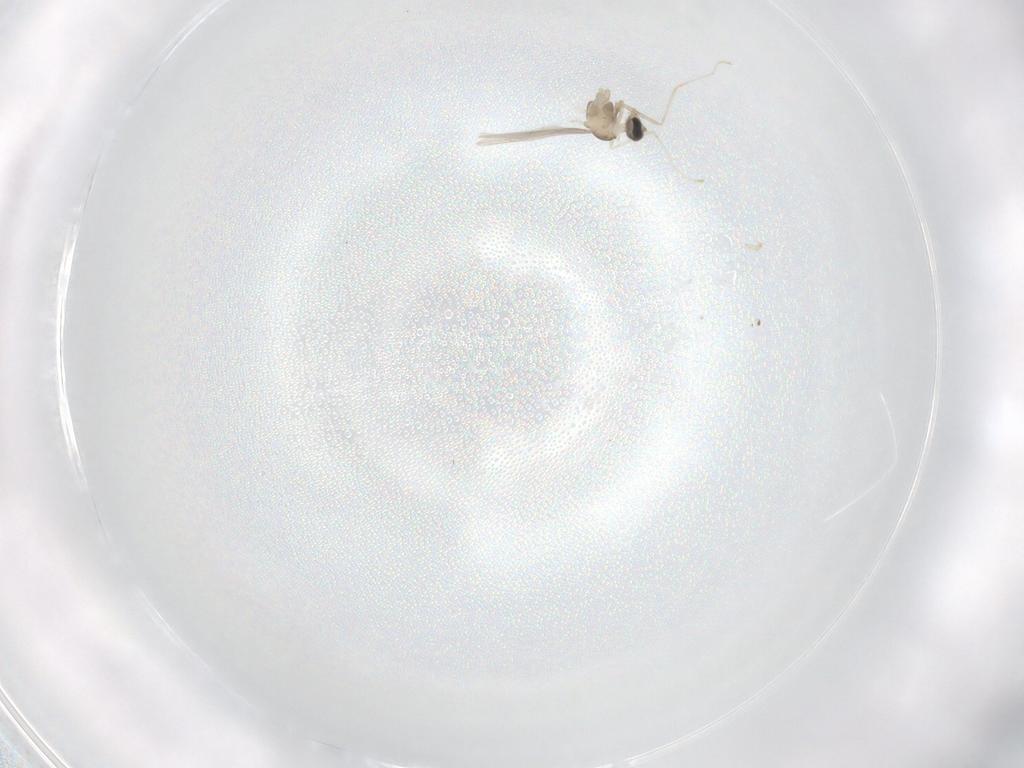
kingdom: Animalia
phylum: Arthropoda
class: Insecta
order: Diptera
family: Cecidomyiidae
